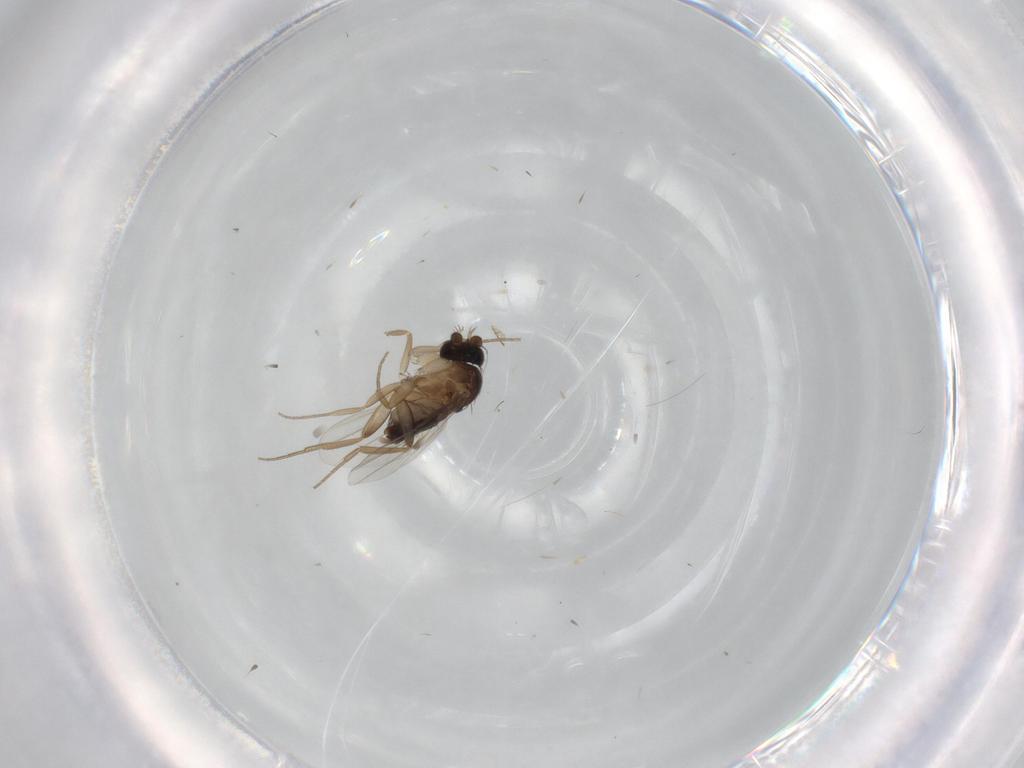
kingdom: Animalia
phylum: Arthropoda
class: Insecta
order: Diptera
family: Phoridae
